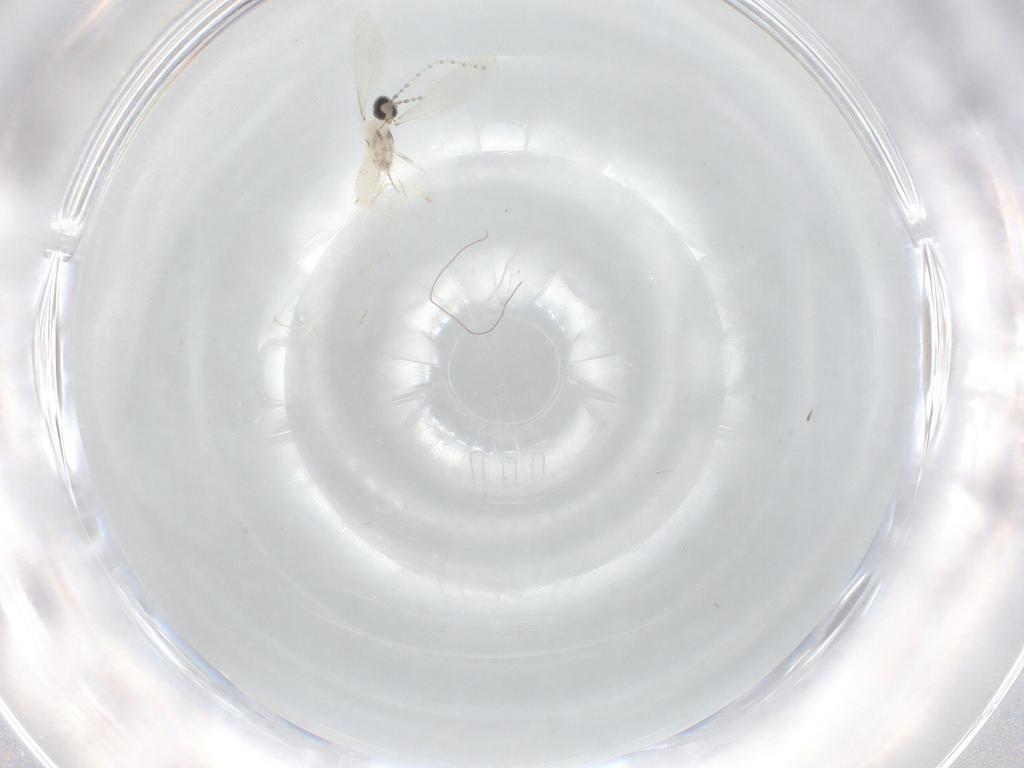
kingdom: Animalia
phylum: Arthropoda
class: Insecta
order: Diptera
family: Cecidomyiidae
